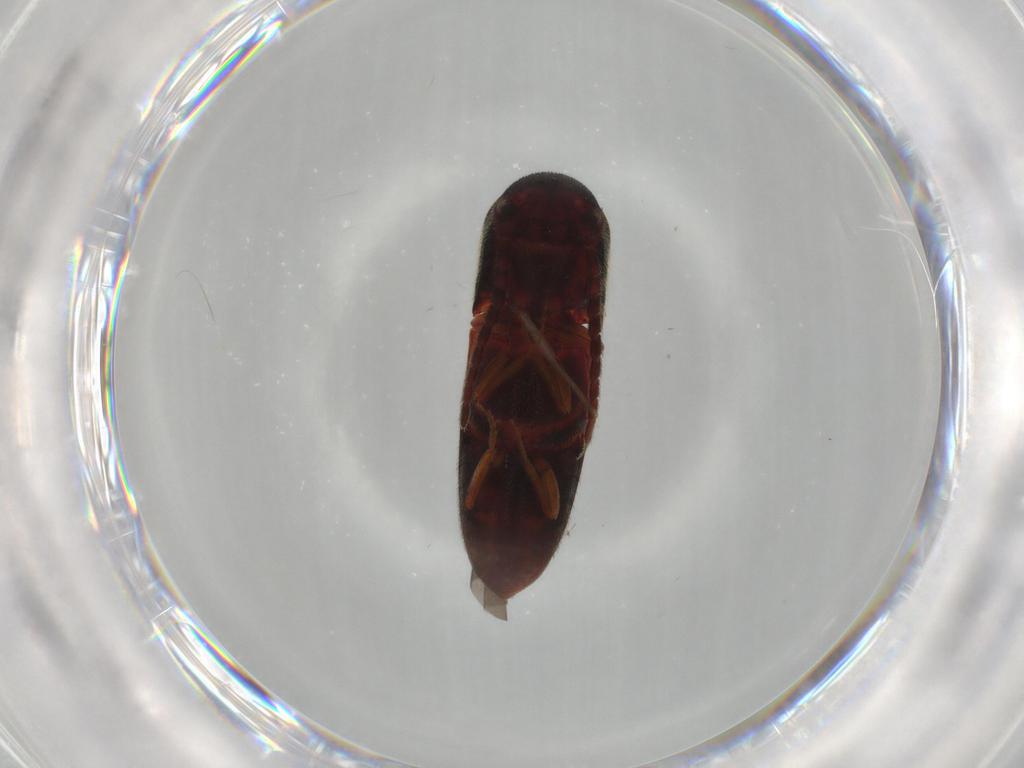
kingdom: Animalia
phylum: Arthropoda
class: Insecta
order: Coleoptera
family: Eucnemidae
